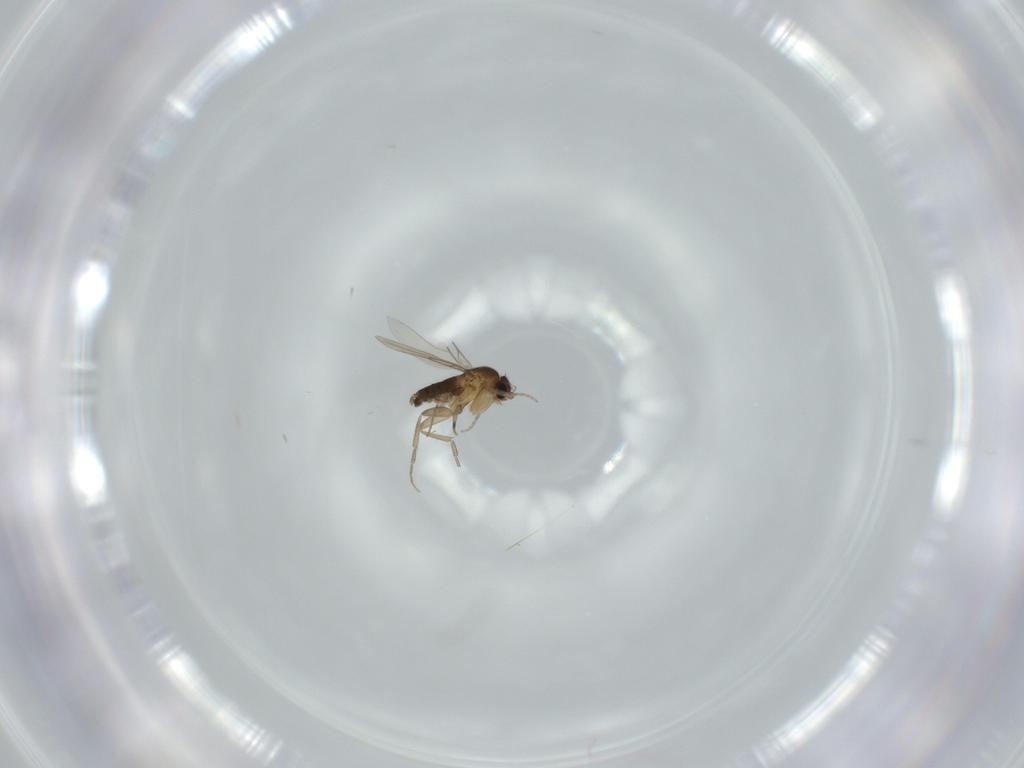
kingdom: Animalia
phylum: Arthropoda
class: Insecta
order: Diptera
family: Phoridae
